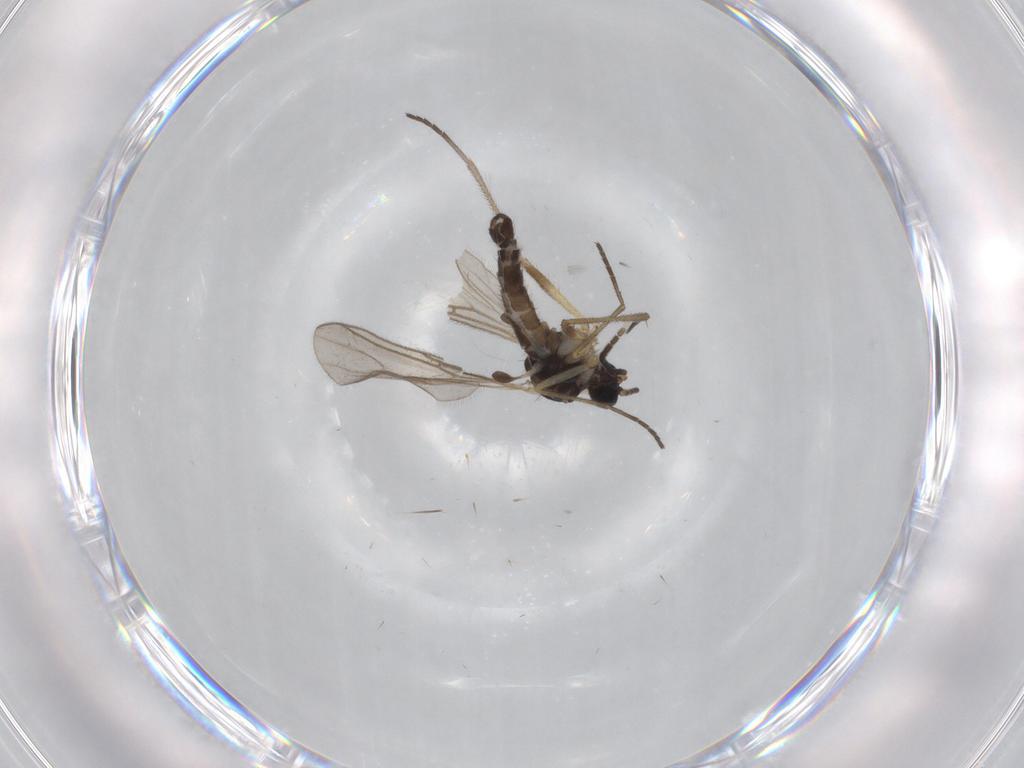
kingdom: Animalia
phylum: Arthropoda
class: Insecta
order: Diptera
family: Sciaridae
